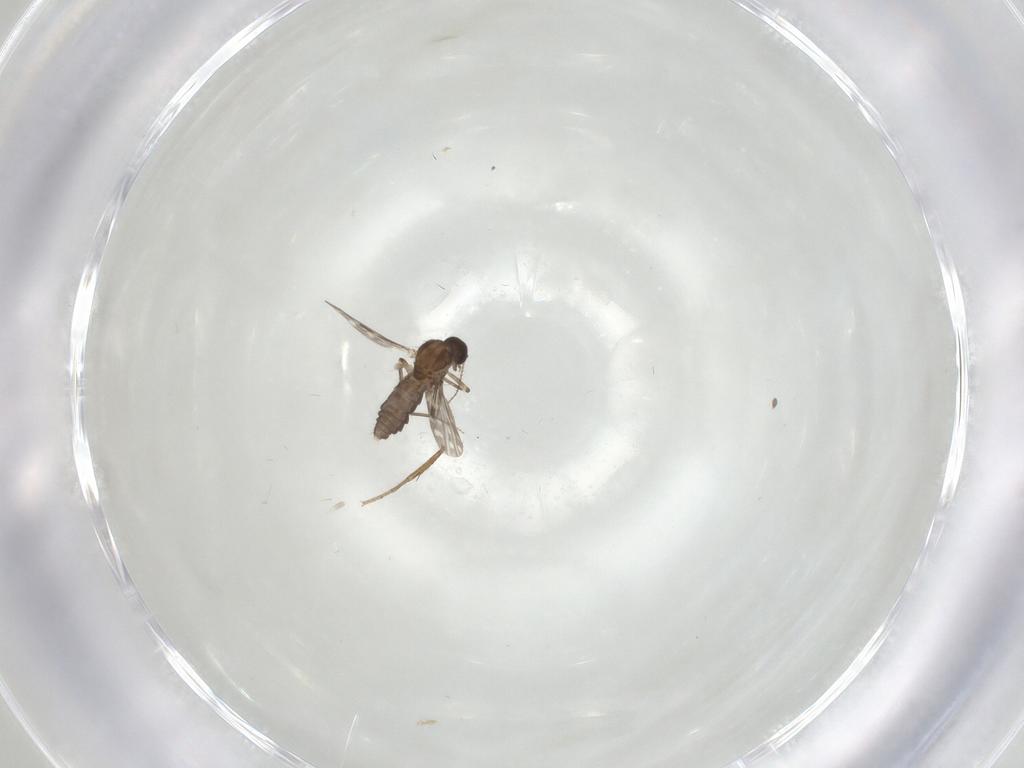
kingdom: Animalia
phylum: Arthropoda
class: Insecta
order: Diptera
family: Sphaeroceridae
